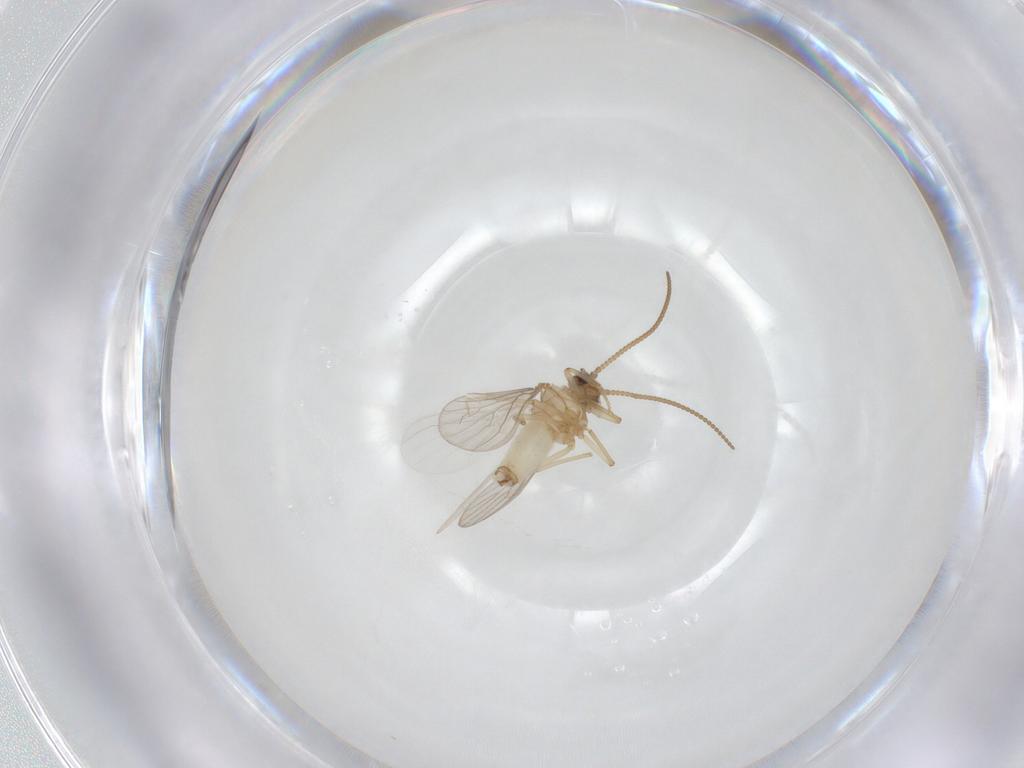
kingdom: Animalia
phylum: Arthropoda
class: Insecta
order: Neuroptera
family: Coniopterygidae
